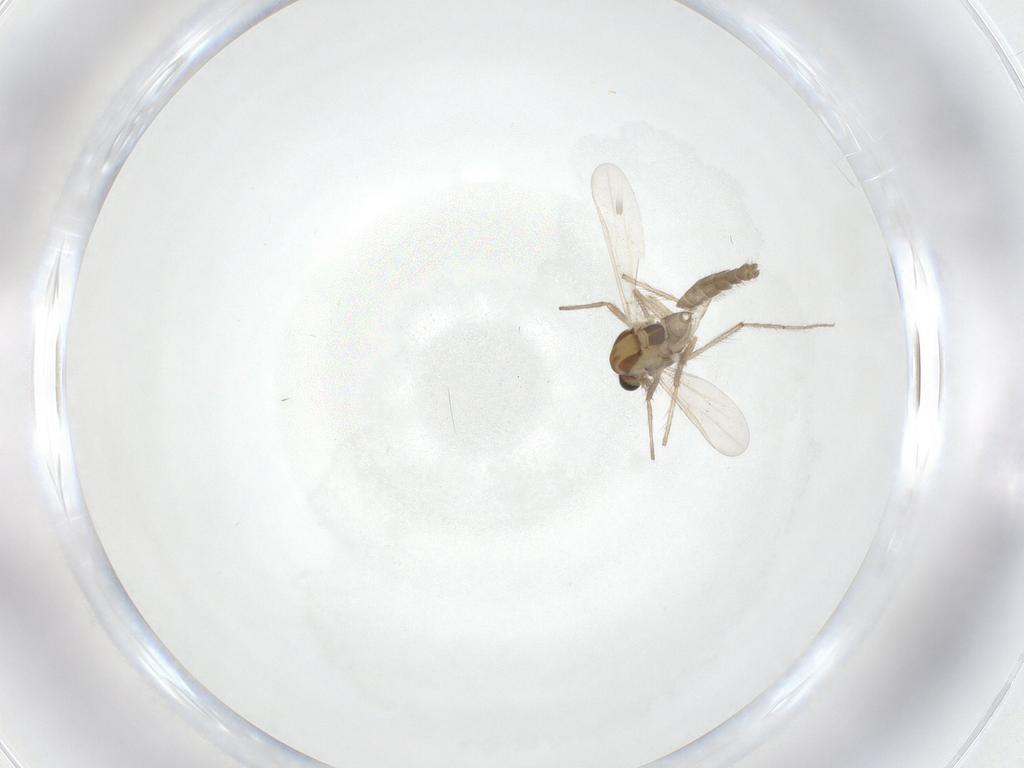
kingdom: Animalia
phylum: Arthropoda
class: Insecta
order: Diptera
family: Chironomidae
